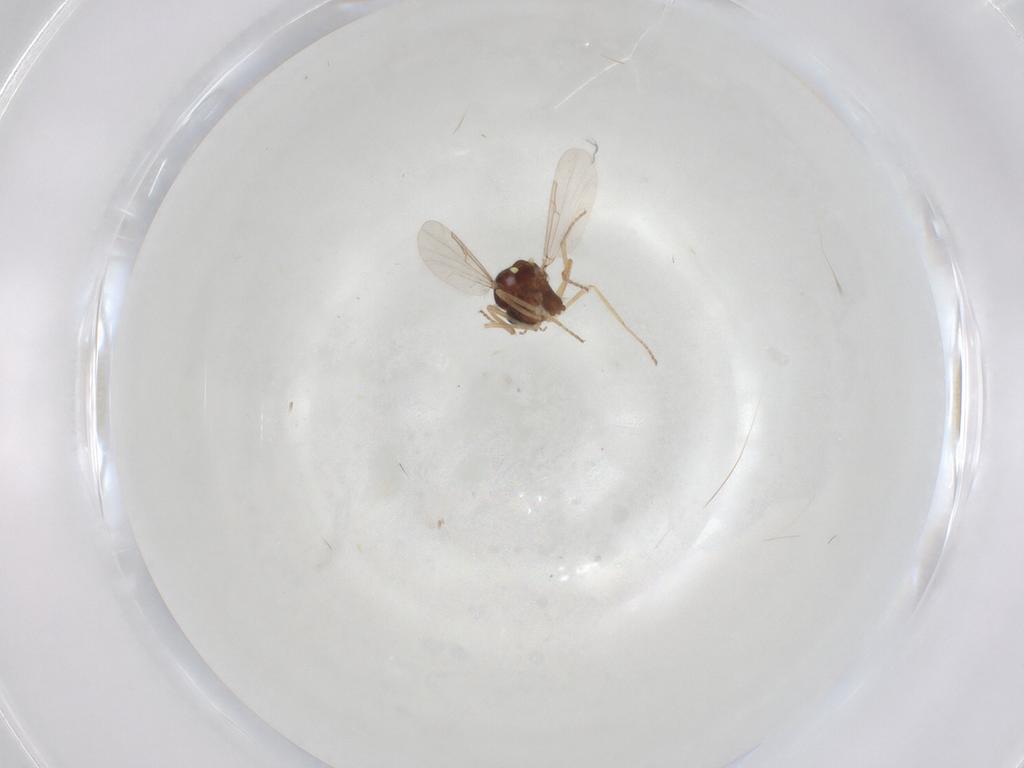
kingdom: Animalia
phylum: Arthropoda
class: Insecta
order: Diptera
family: Ceratopogonidae
